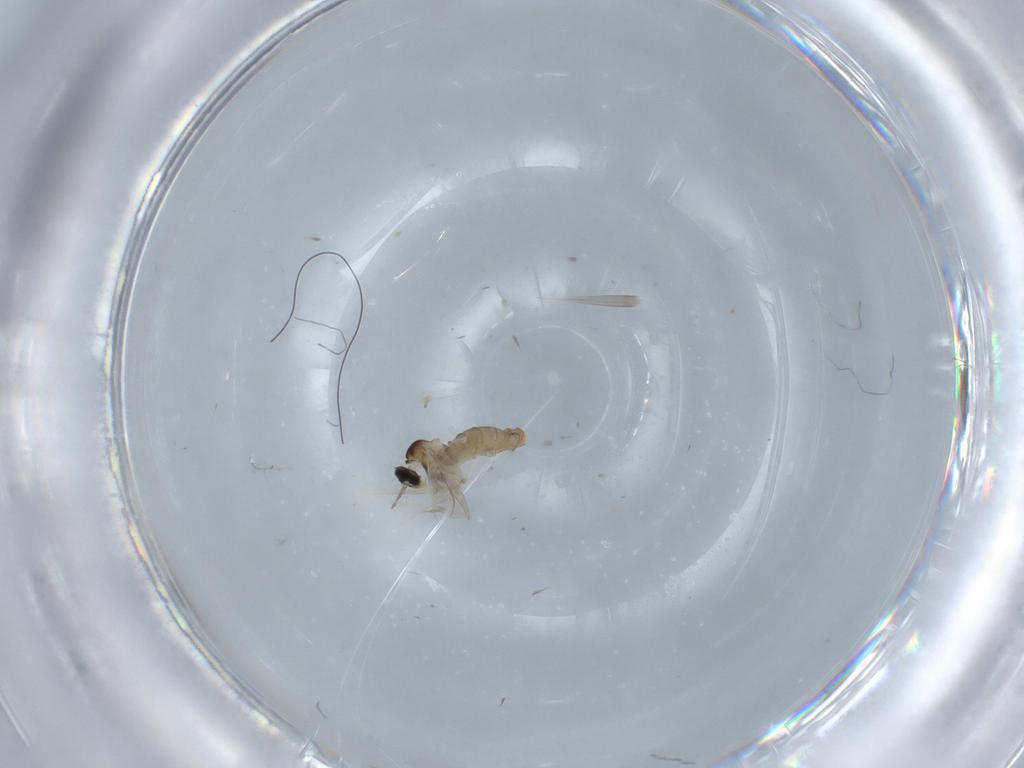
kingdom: Animalia
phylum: Arthropoda
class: Insecta
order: Diptera
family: Cecidomyiidae
